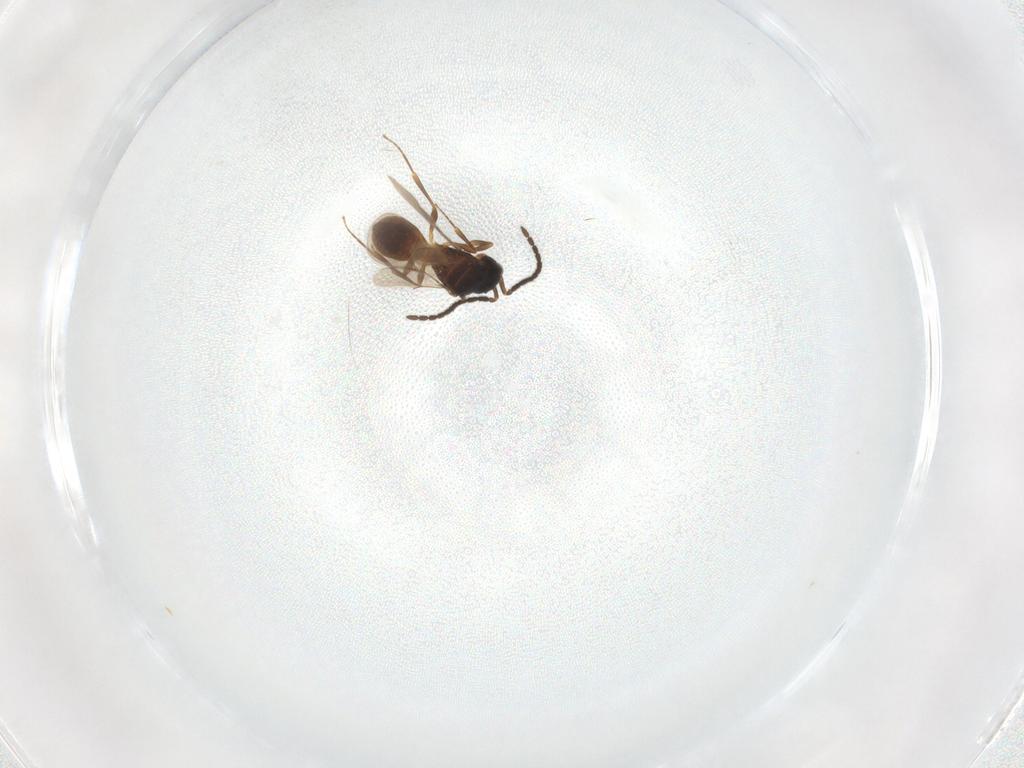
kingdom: Animalia
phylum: Arthropoda
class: Insecta
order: Hymenoptera
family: Scelionidae
